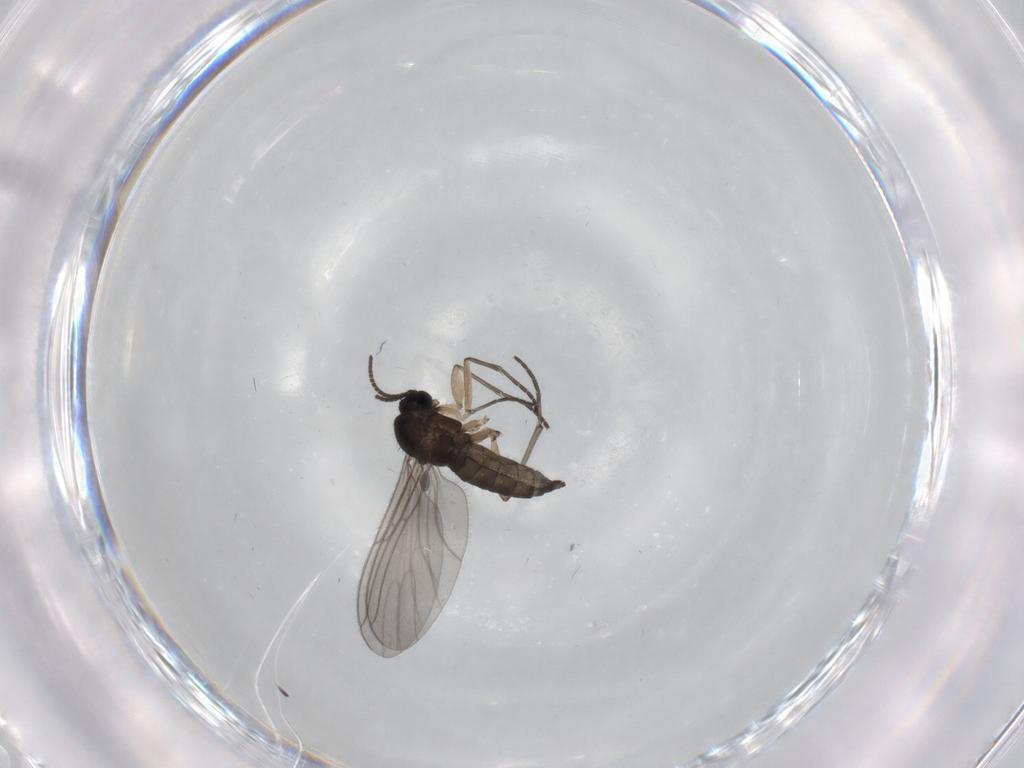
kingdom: Animalia
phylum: Arthropoda
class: Insecta
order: Diptera
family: Sciaridae
